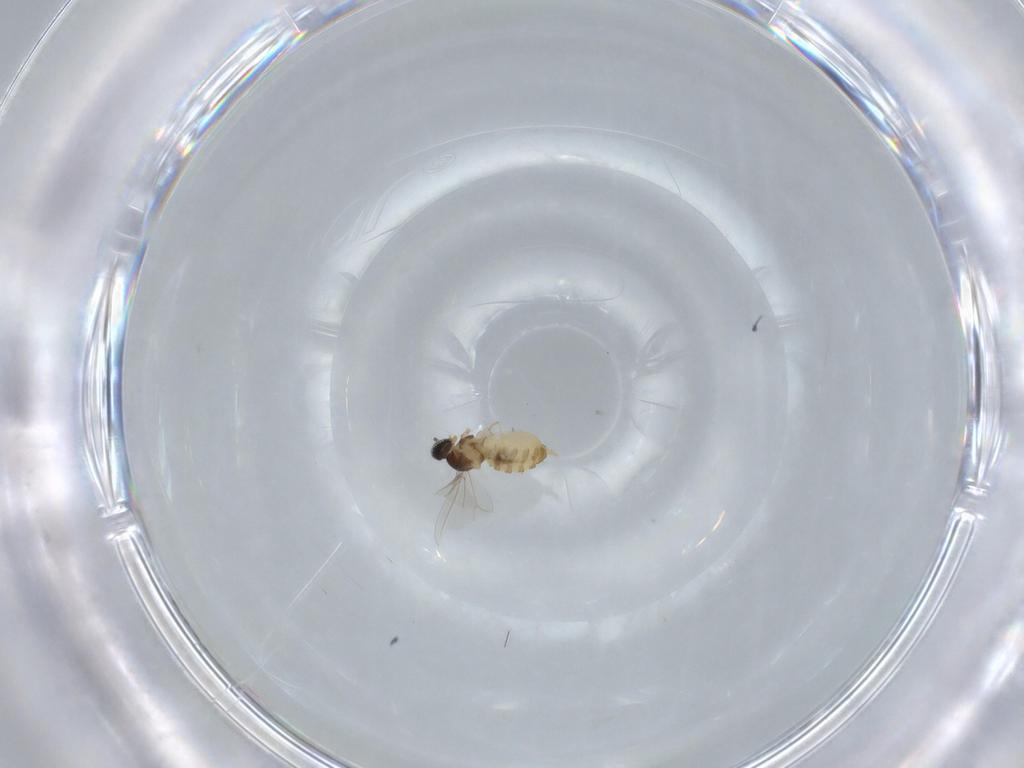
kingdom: Animalia
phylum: Arthropoda
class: Insecta
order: Diptera
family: Cecidomyiidae
